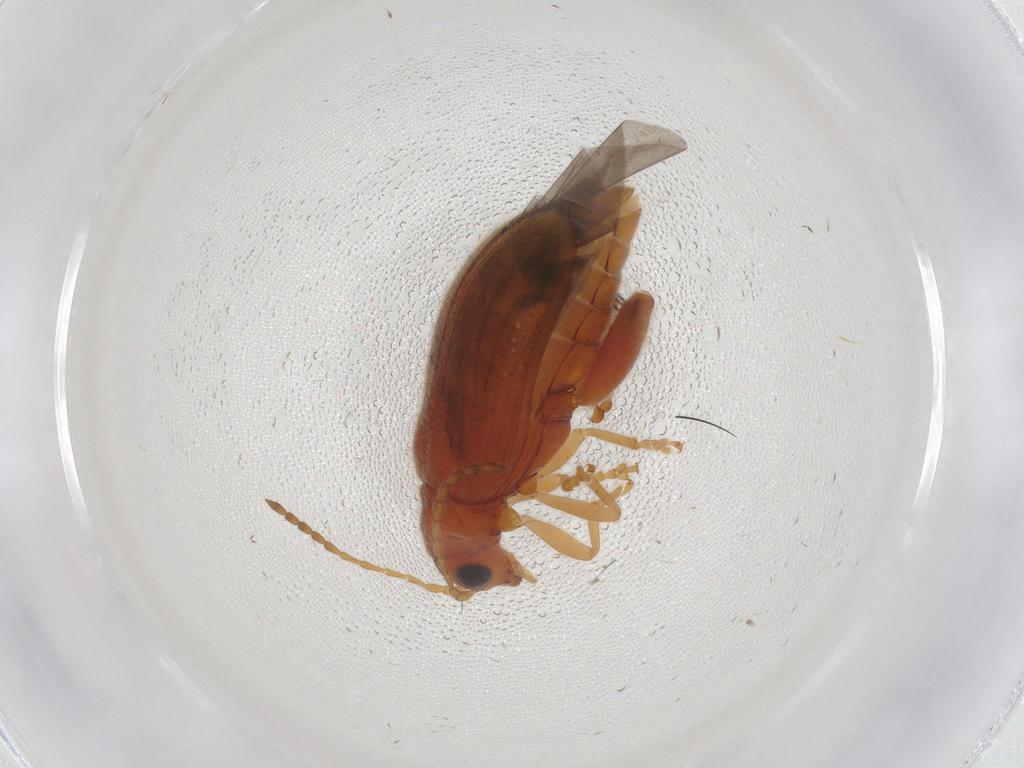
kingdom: Animalia
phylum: Arthropoda
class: Insecta
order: Coleoptera
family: Chrysomelidae
